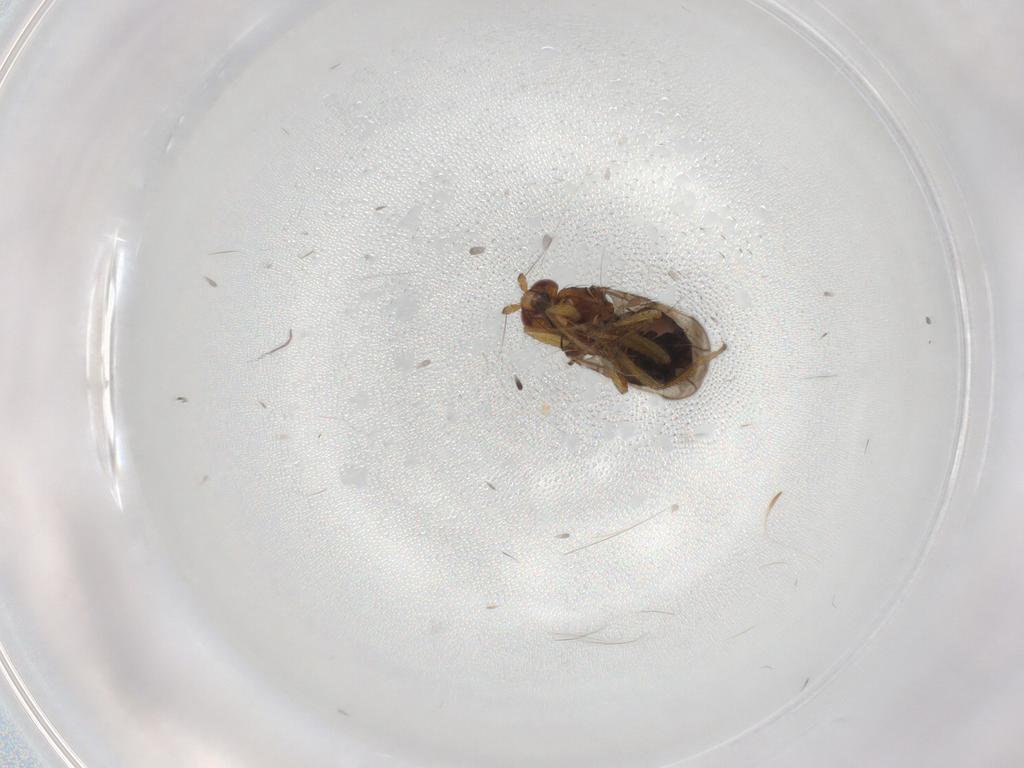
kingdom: Animalia
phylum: Arthropoda
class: Insecta
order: Diptera
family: Sphaeroceridae
